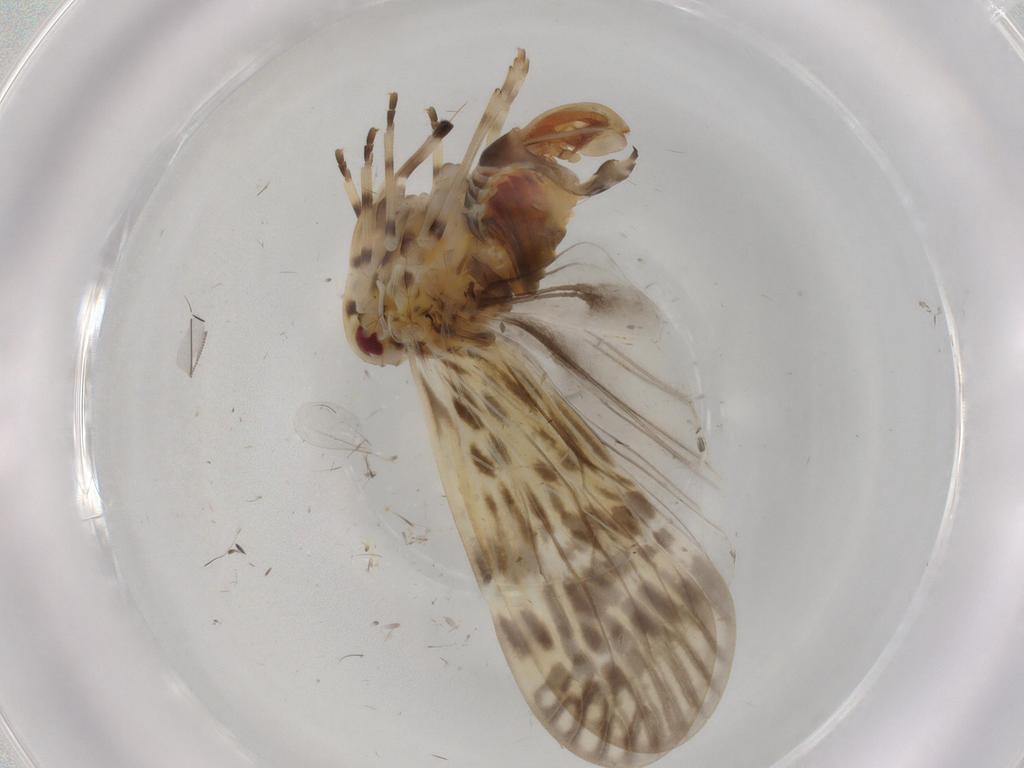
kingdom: Animalia
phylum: Arthropoda
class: Insecta
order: Hemiptera
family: Derbidae
